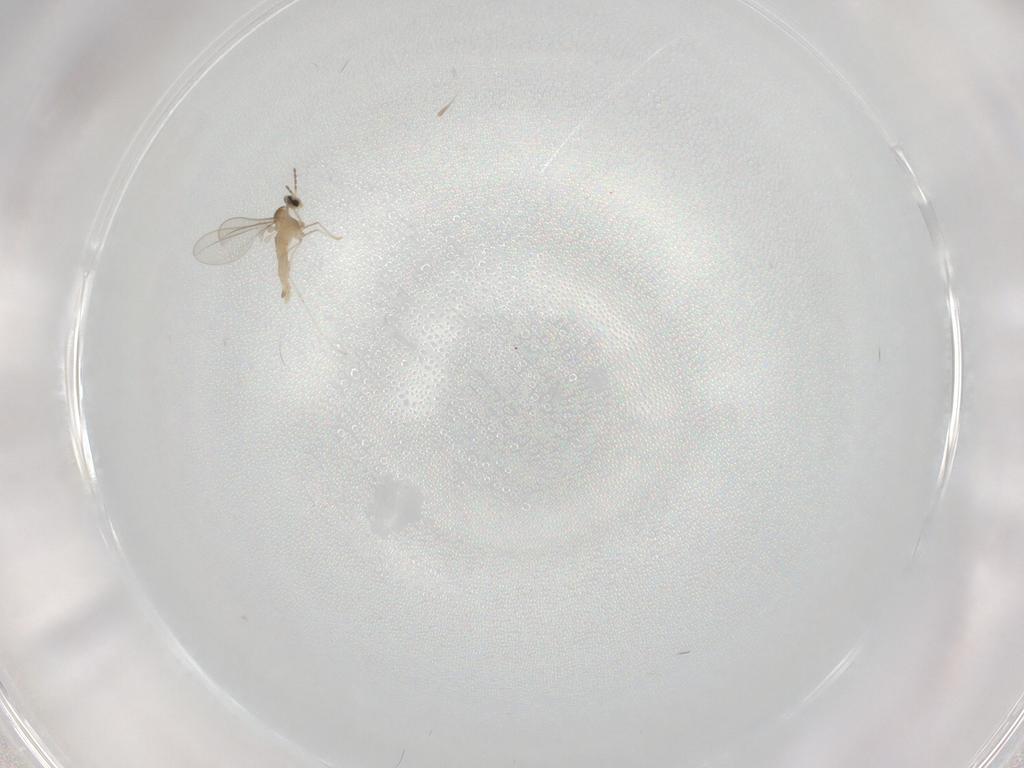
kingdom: Animalia
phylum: Arthropoda
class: Insecta
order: Diptera
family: Cecidomyiidae
